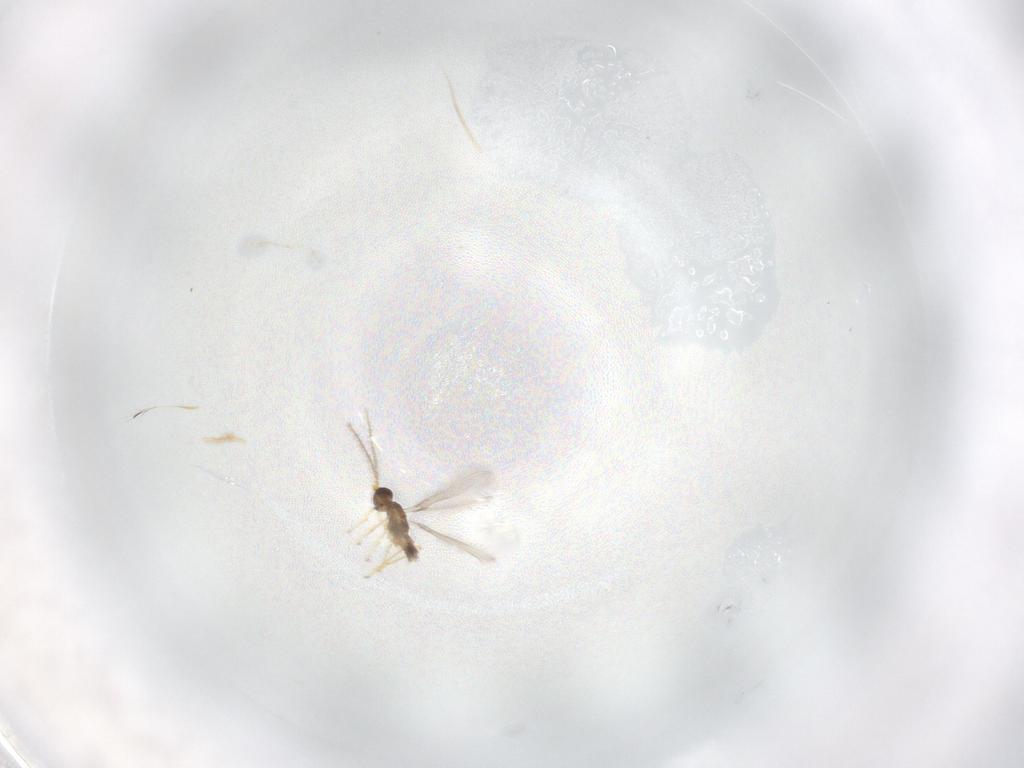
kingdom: Animalia
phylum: Arthropoda
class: Insecta
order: Hymenoptera
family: Mymaridae
